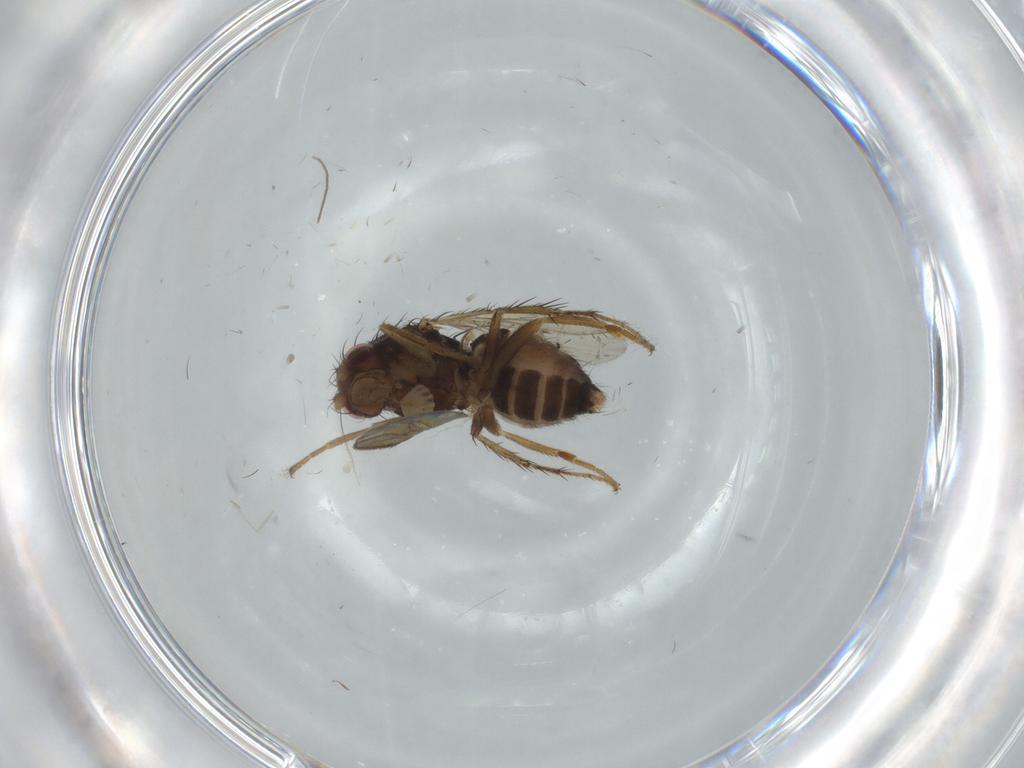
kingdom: Animalia
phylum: Arthropoda
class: Insecta
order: Diptera
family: Sphaeroceridae
